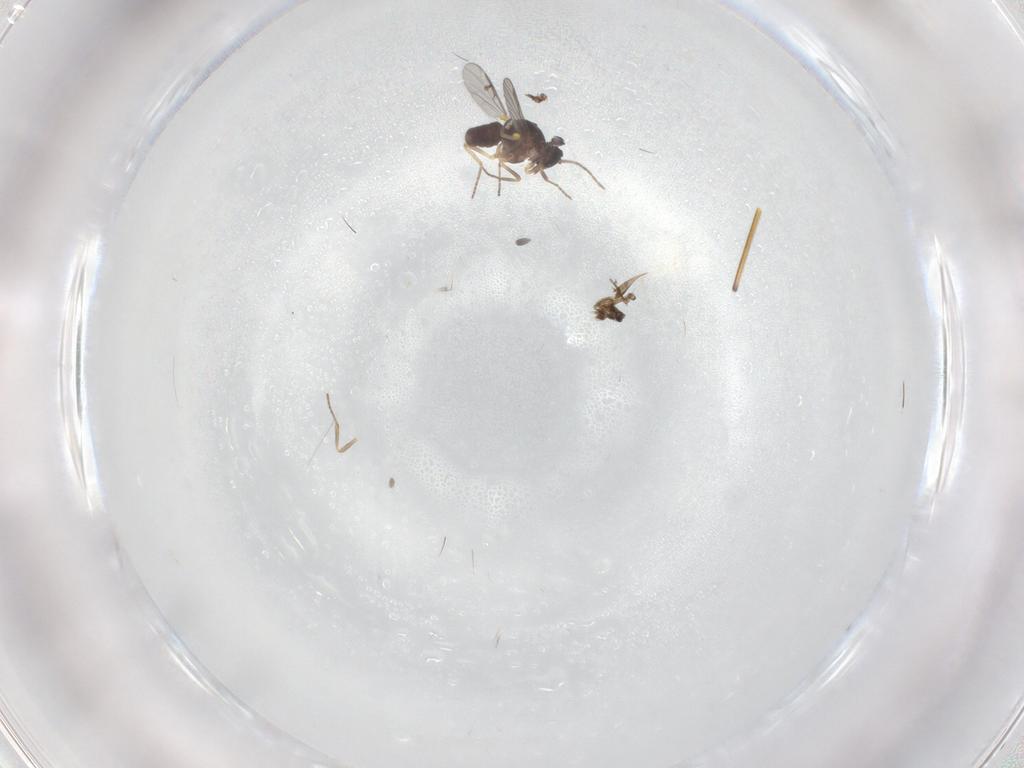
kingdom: Animalia
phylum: Arthropoda
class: Insecta
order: Diptera
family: Ceratopogonidae
